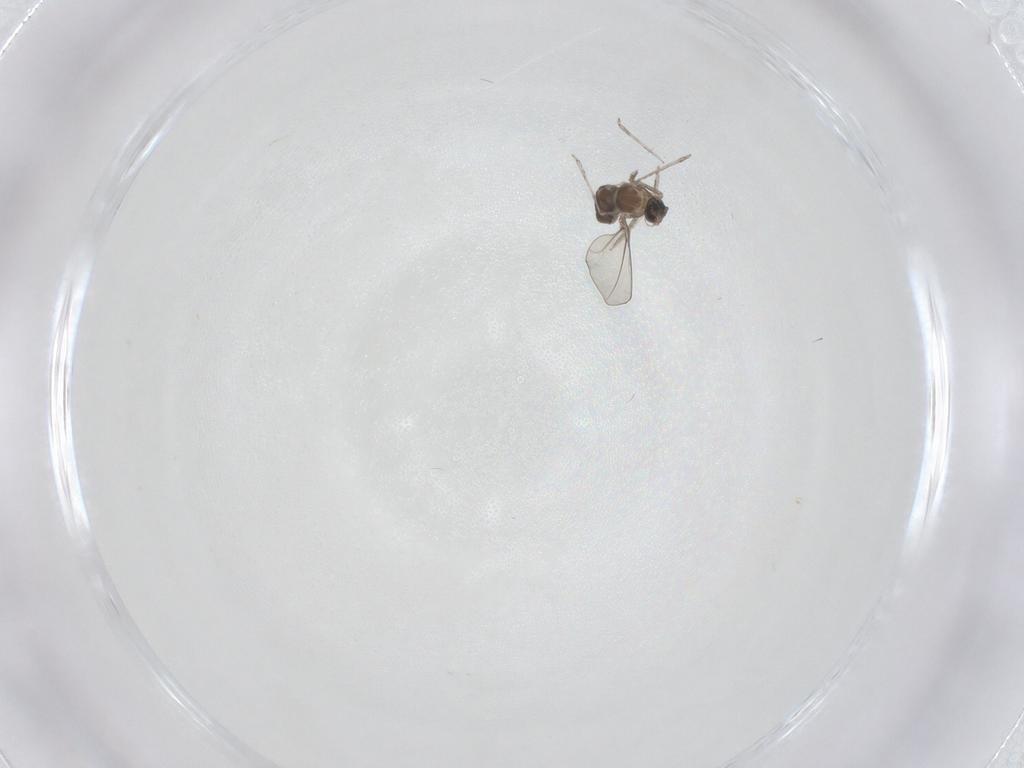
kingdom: Animalia
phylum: Arthropoda
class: Insecta
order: Diptera
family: Cecidomyiidae
